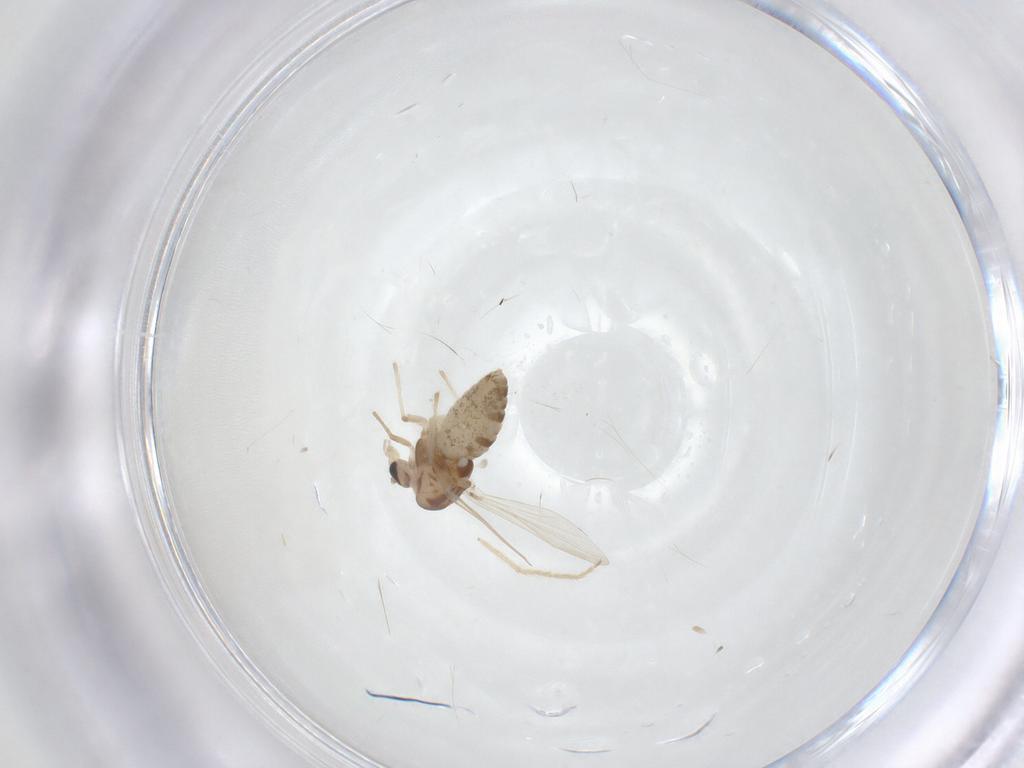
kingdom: Animalia
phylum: Arthropoda
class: Insecta
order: Diptera
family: Chironomidae
